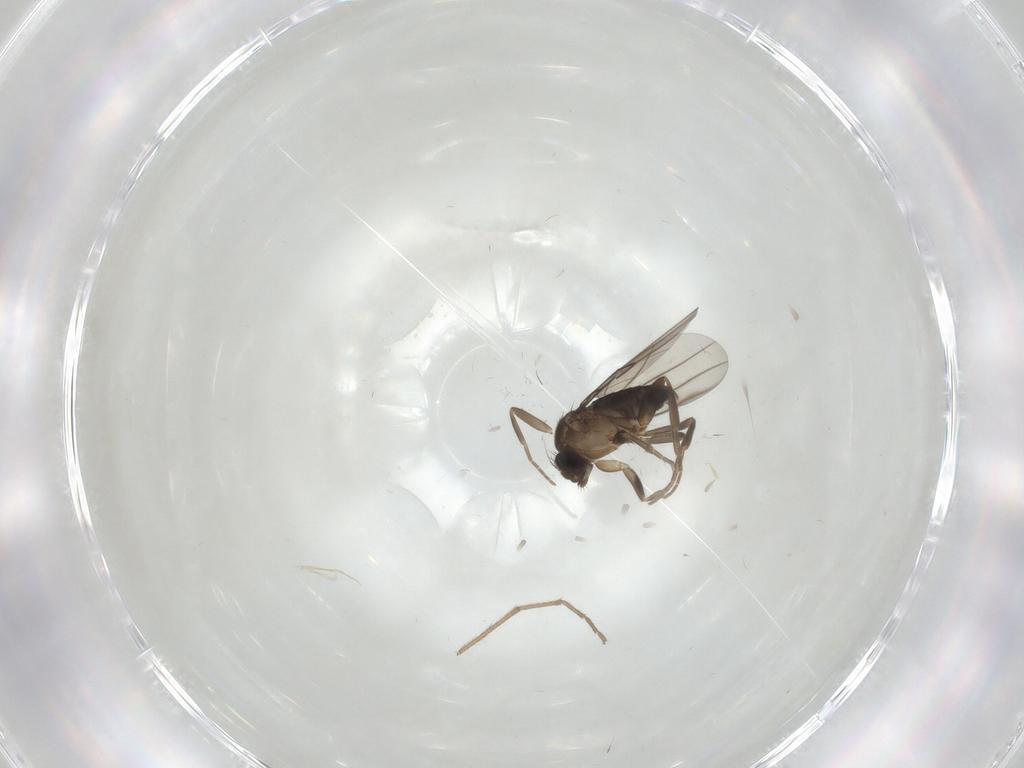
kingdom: Animalia
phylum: Arthropoda
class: Insecta
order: Diptera
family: Phoridae
